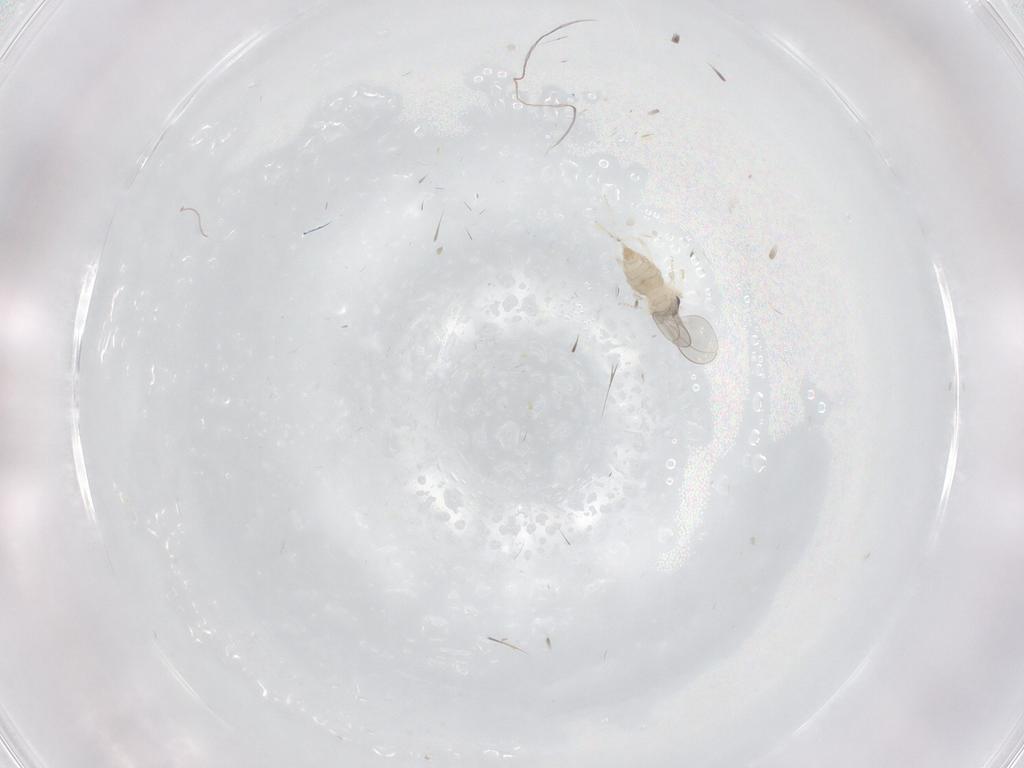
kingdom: Animalia
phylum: Arthropoda
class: Insecta
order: Diptera
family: Cecidomyiidae
